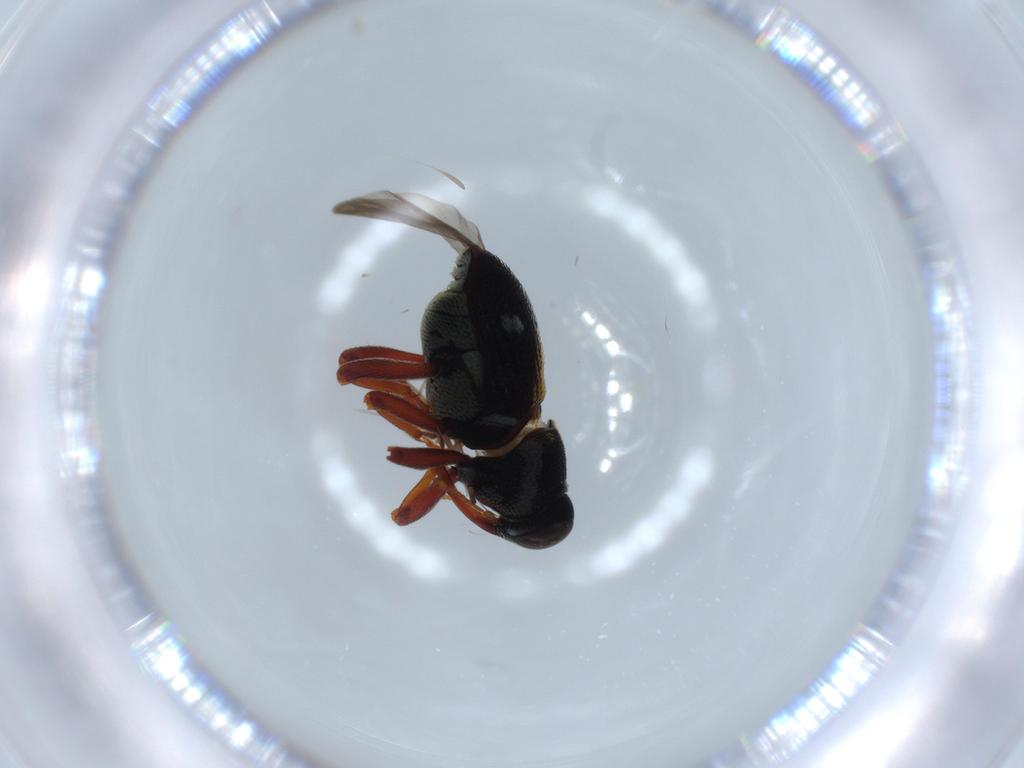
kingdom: Animalia
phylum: Arthropoda
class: Insecta
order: Coleoptera
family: Curculionidae
